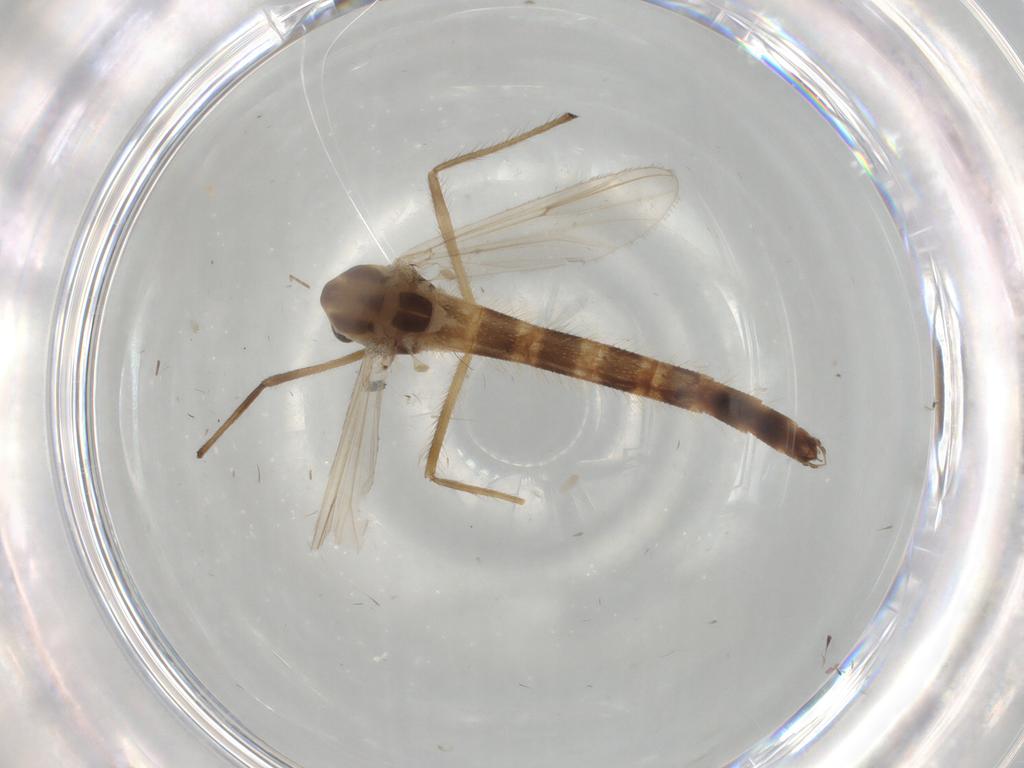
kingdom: Animalia
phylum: Arthropoda
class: Insecta
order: Diptera
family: Chironomidae
